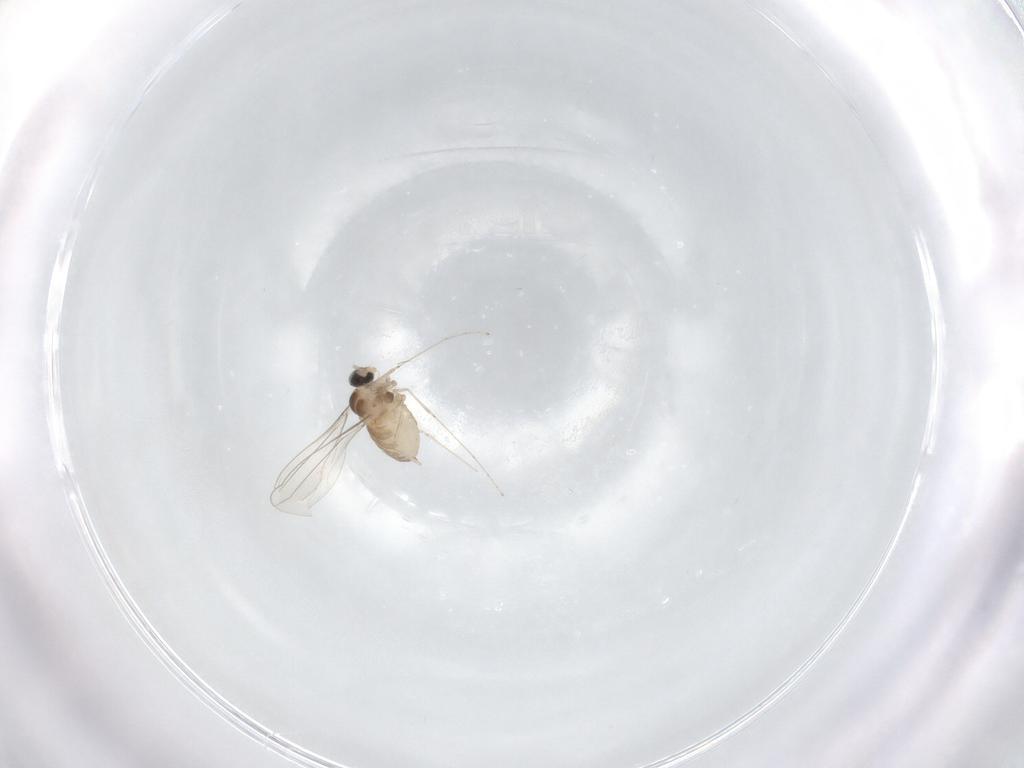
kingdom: Animalia
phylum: Arthropoda
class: Insecta
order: Diptera
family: Cecidomyiidae
